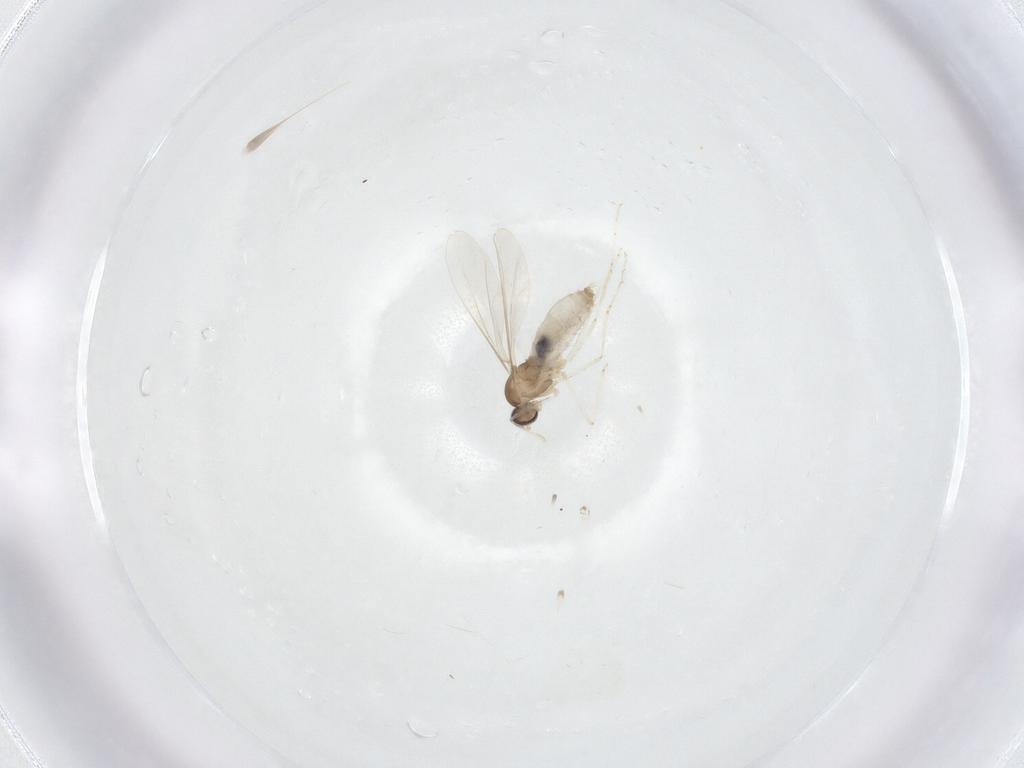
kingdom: Animalia
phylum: Arthropoda
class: Insecta
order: Diptera
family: Cecidomyiidae
